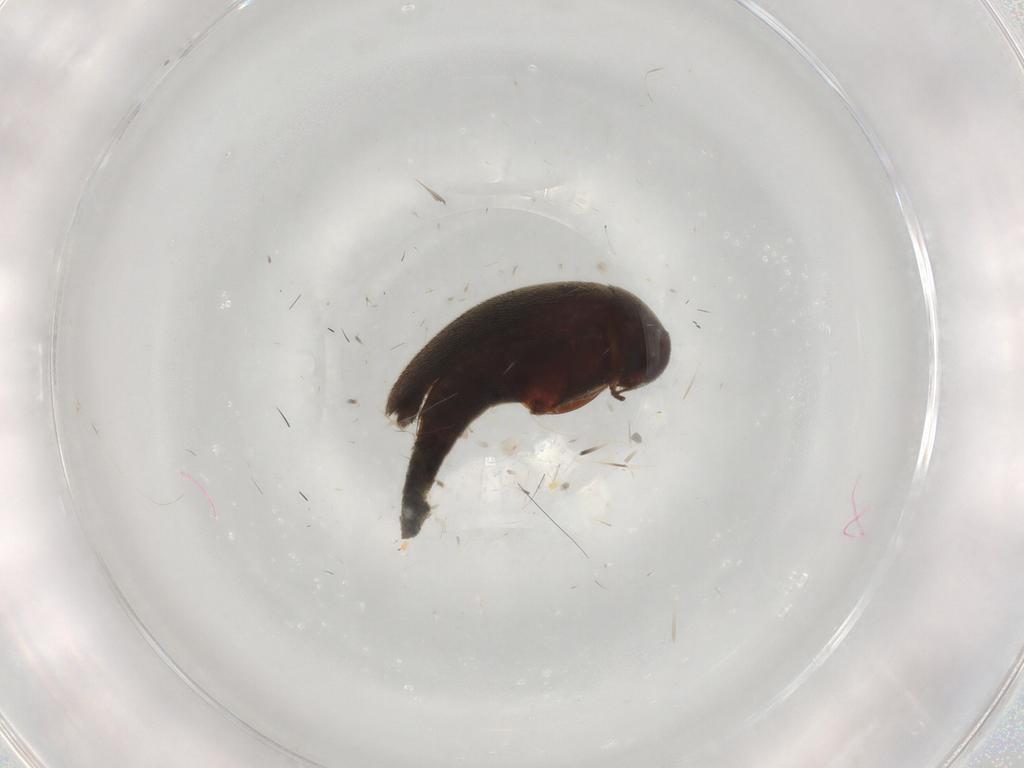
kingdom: Animalia
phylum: Arthropoda
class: Insecta
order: Coleoptera
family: Mordellidae
